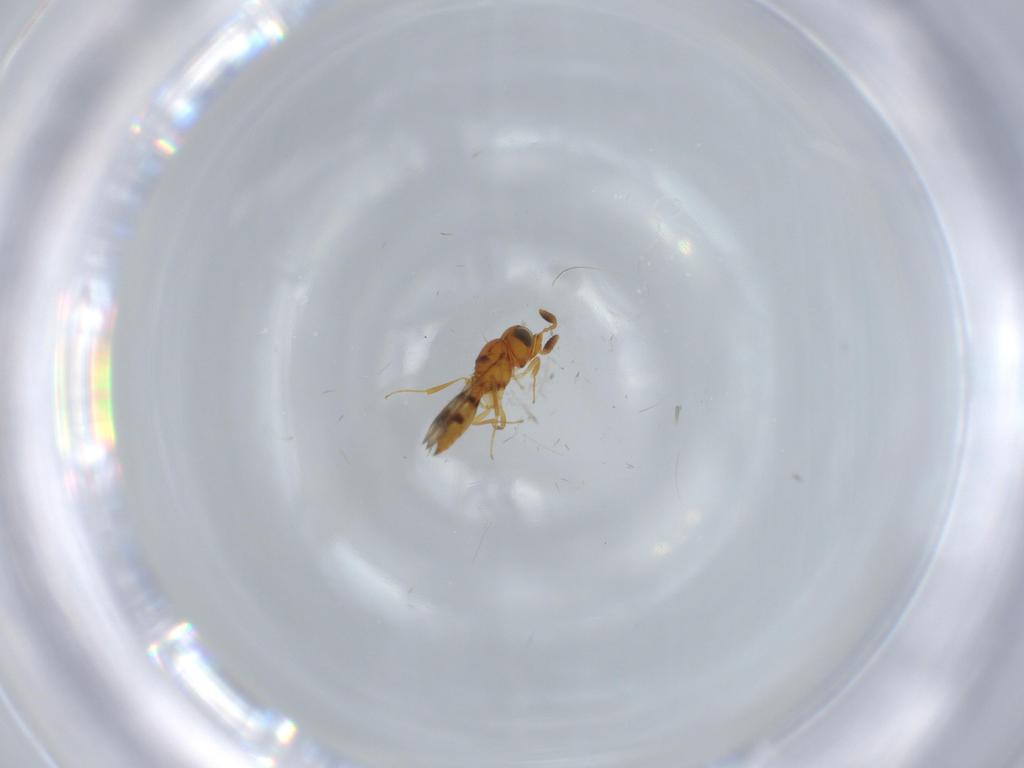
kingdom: Animalia
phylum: Arthropoda
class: Insecta
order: Hymenoptera
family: Scelionidae
